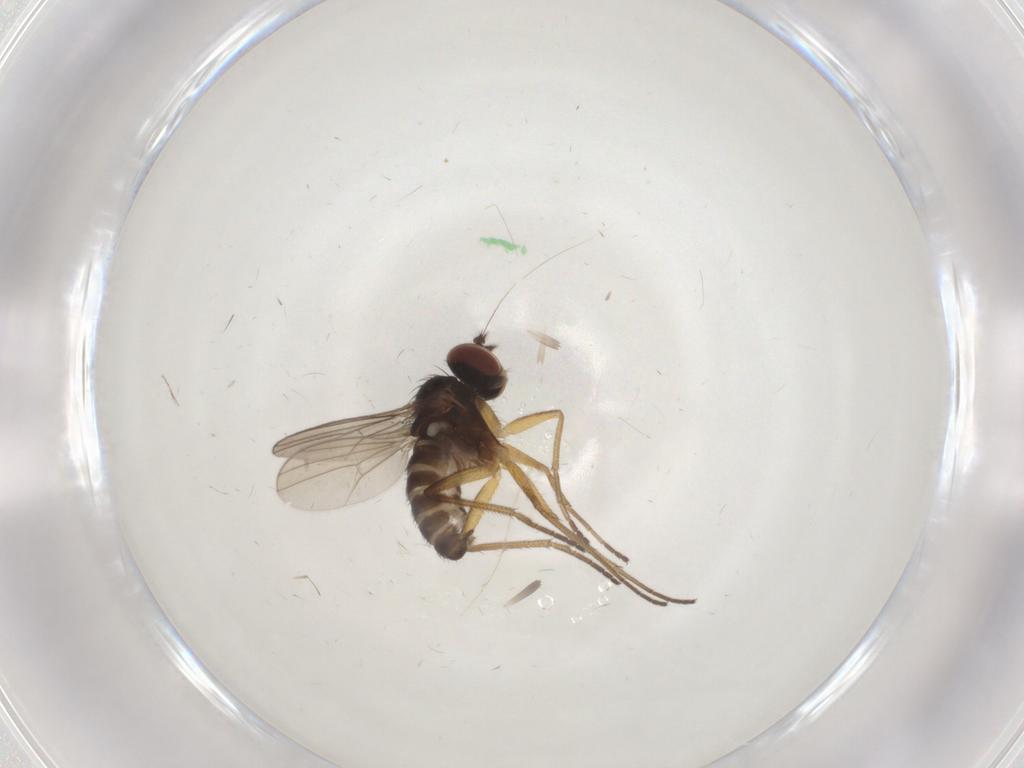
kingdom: Animalia
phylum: Arthropoda
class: Insecta
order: Diptera
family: Dolichopodidae
